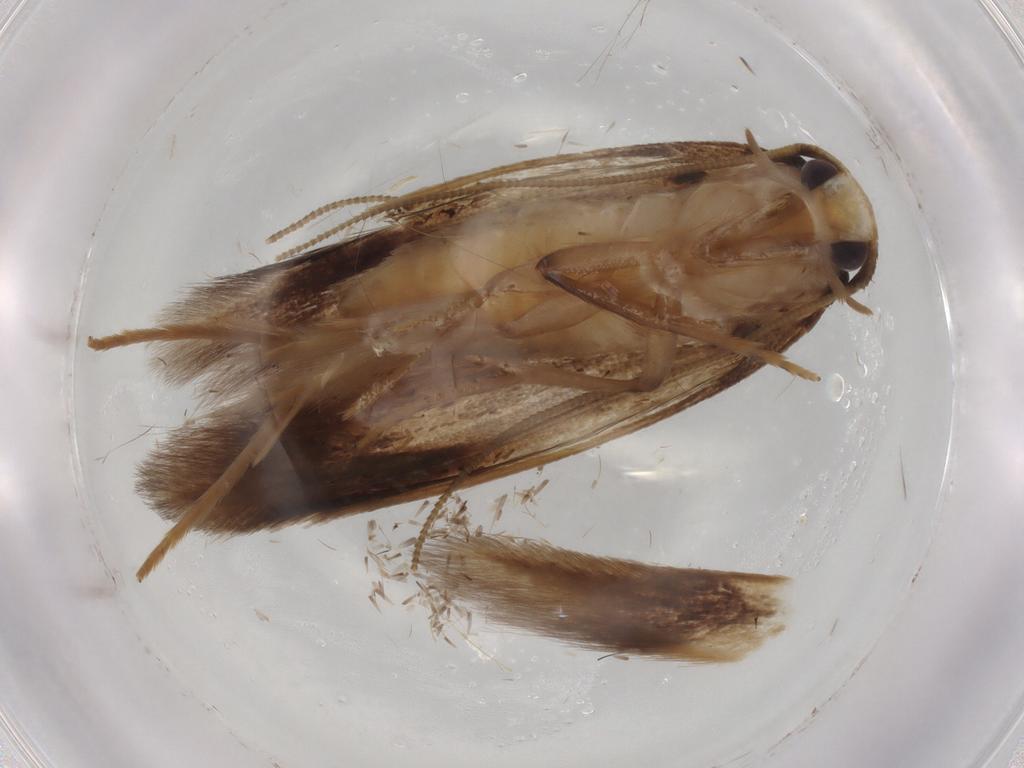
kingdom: Animalia
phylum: Arthropoda
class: Insecta
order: Lepidoptera
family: Tineidae
